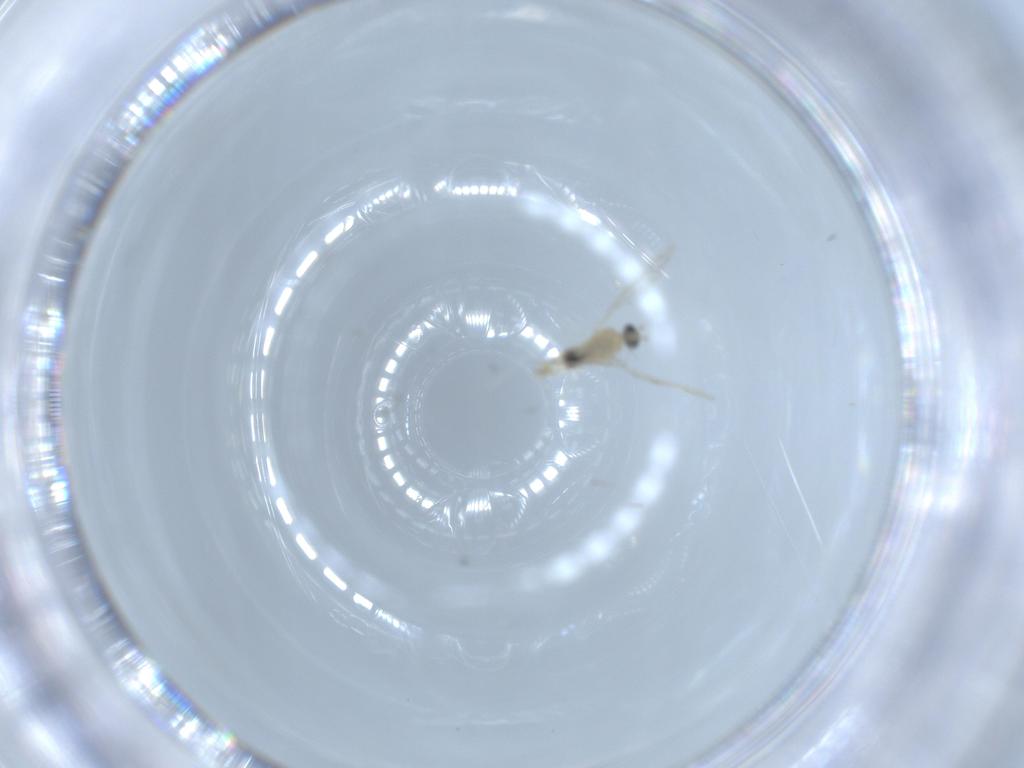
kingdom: Animalia
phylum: Arthropoda
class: Insecta
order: Diptera
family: Cecidomyiidae
